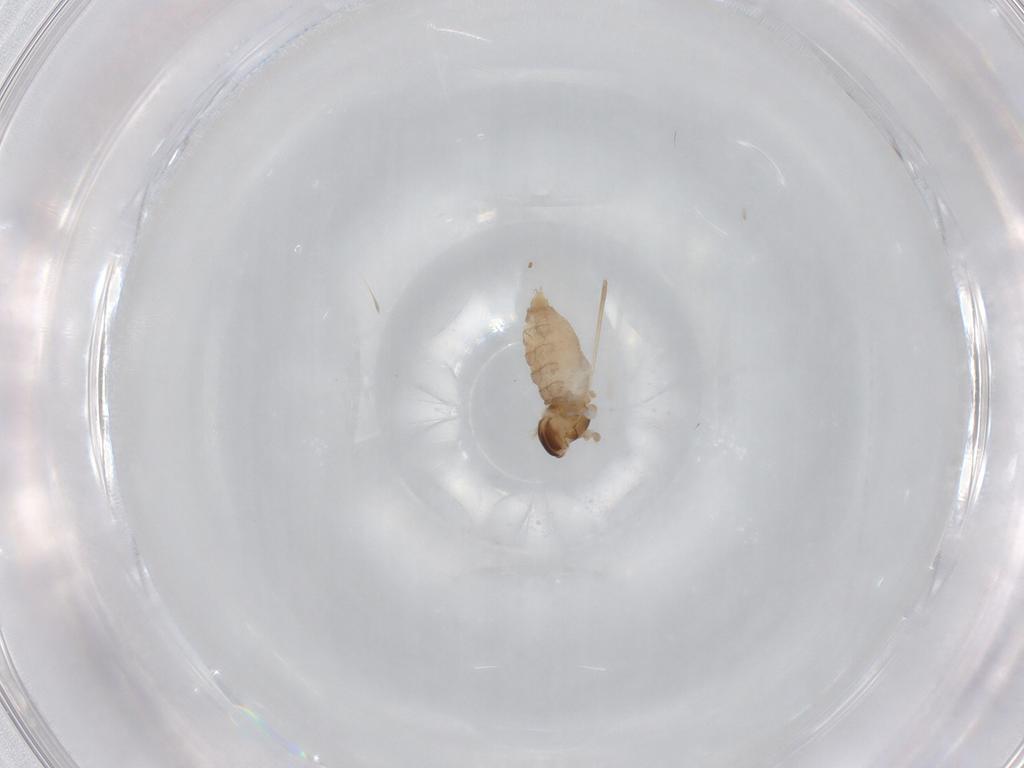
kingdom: Animalia
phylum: Arthropoda
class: Insecta
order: Diptera
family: Cecidomyiidae
